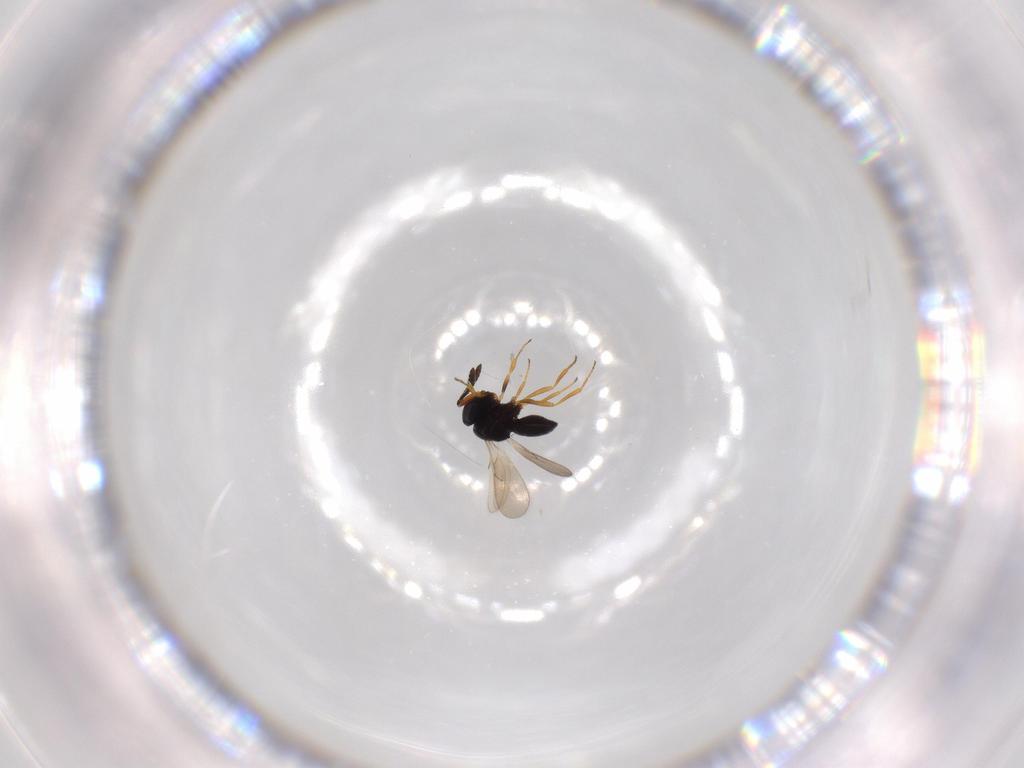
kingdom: Animalia
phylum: Arthropoda
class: Insecta
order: Hymenoptera
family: Scelionidae
